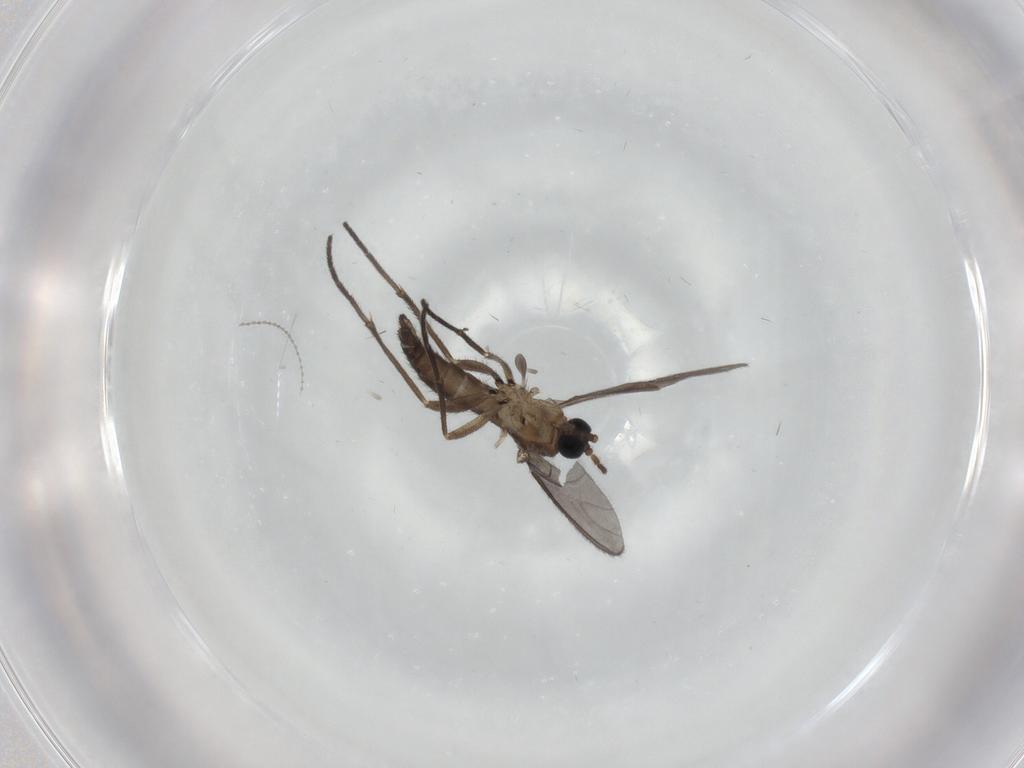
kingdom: Animalia
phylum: Arthropoda
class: Insecta
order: Diptera
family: Sciaridae
